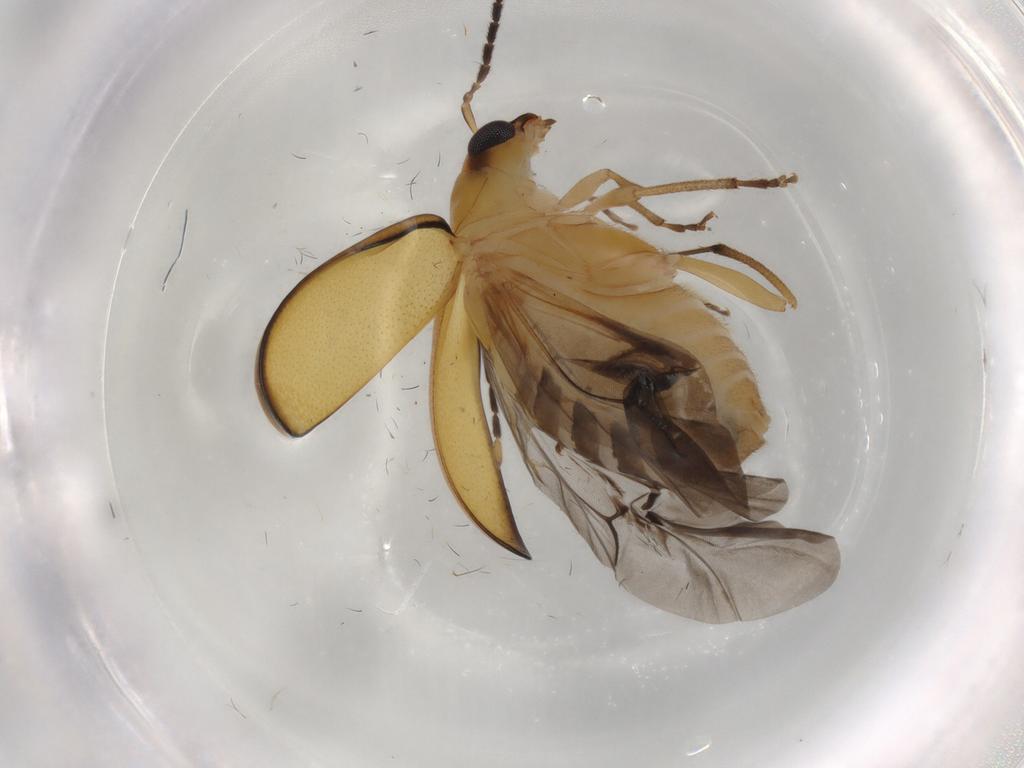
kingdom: Animalia
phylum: Arthropoda
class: Insecta
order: Coleoptera
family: Chrysomelidae
